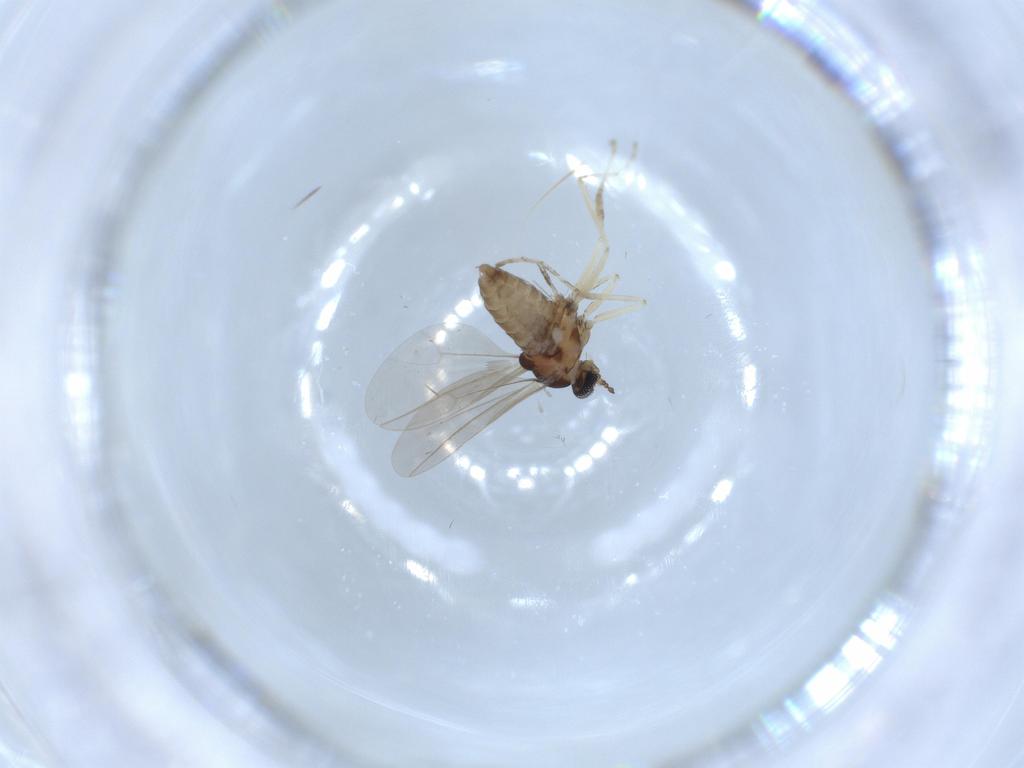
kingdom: Animalia
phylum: Arthropoda
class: Insecta
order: Diptera
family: Cecidomyiidae
